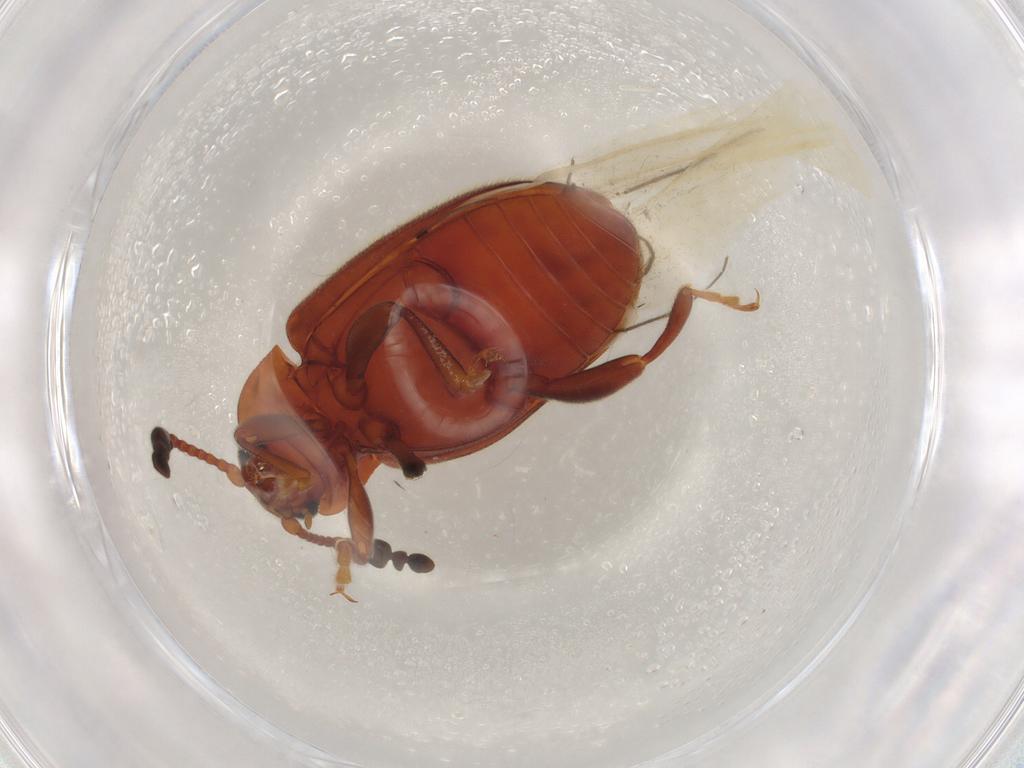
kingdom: Animalia
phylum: Arthropoda
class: Insecta
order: Coleoptera
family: Endomychidae
